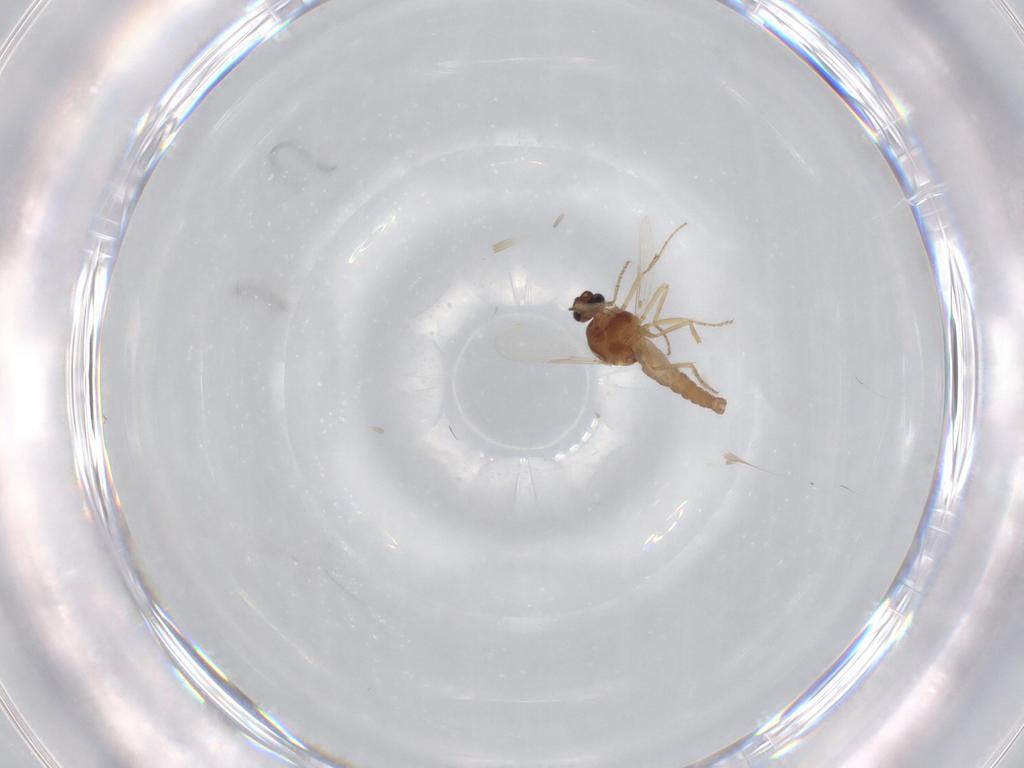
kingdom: Animalia
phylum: Arthropoda
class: Insecta
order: Diptera
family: Ceratopogonidae
